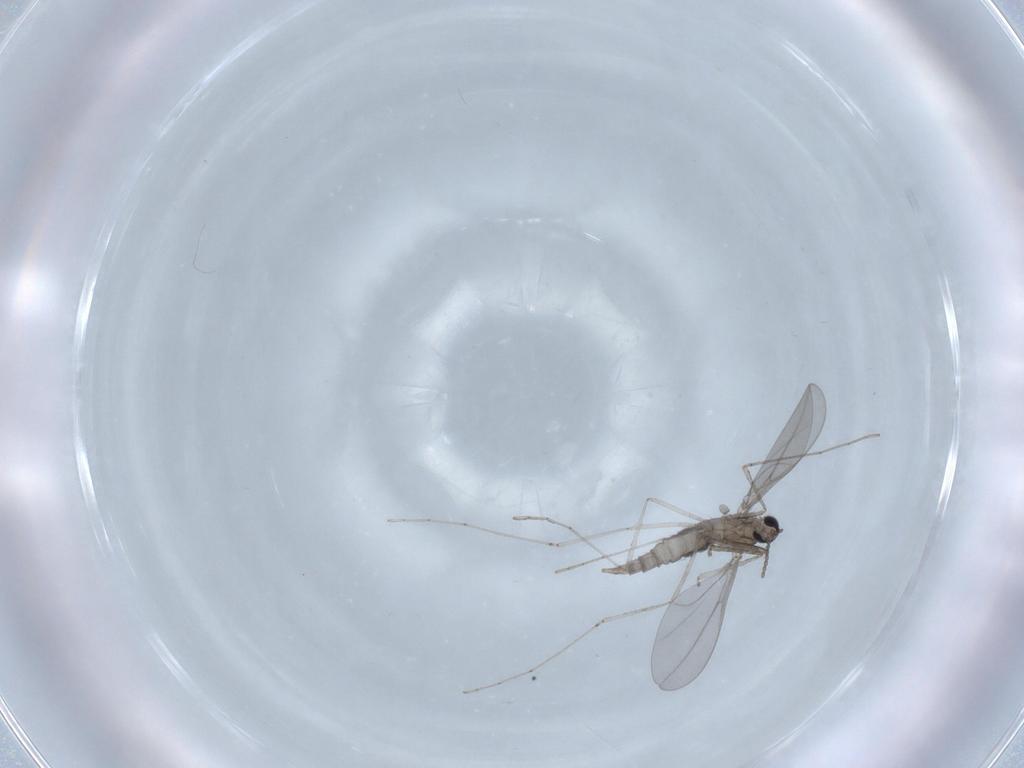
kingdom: Animalia
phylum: Arthropoda
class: Insecta
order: Diptera
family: Cecidomyiidae
